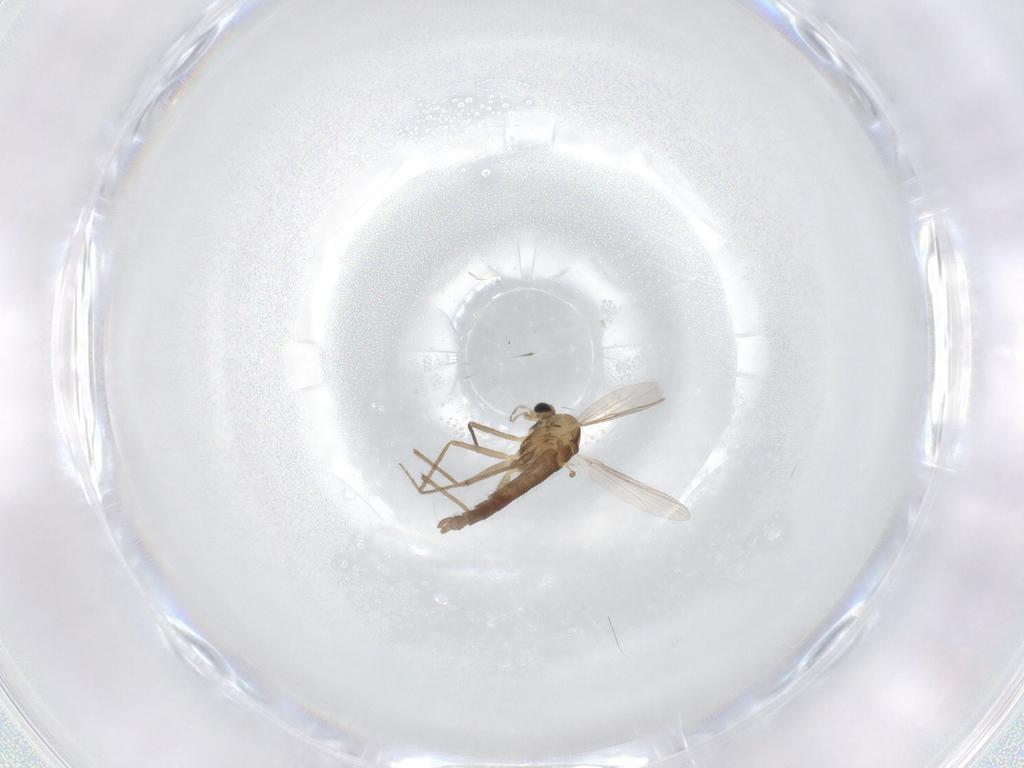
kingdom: Animalia
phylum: Arthropoda
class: Insecta
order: Diptera
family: Chironomidae
